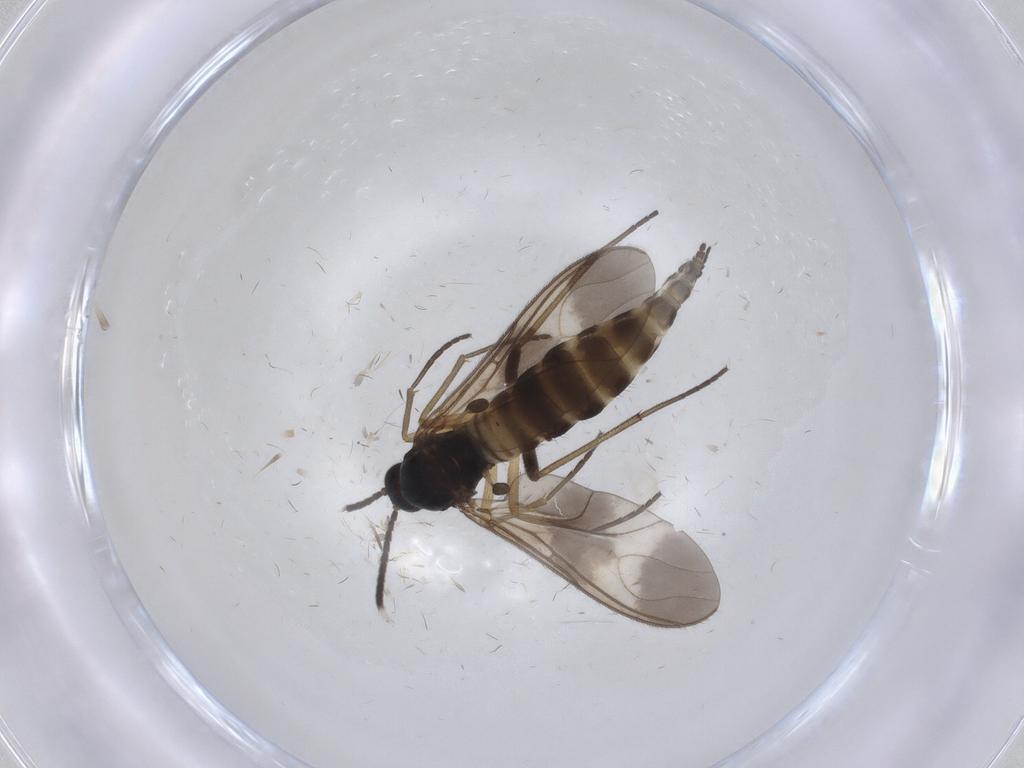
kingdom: Animalia
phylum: Arthropoda
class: Insecta
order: Diptera
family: Sciaridae
